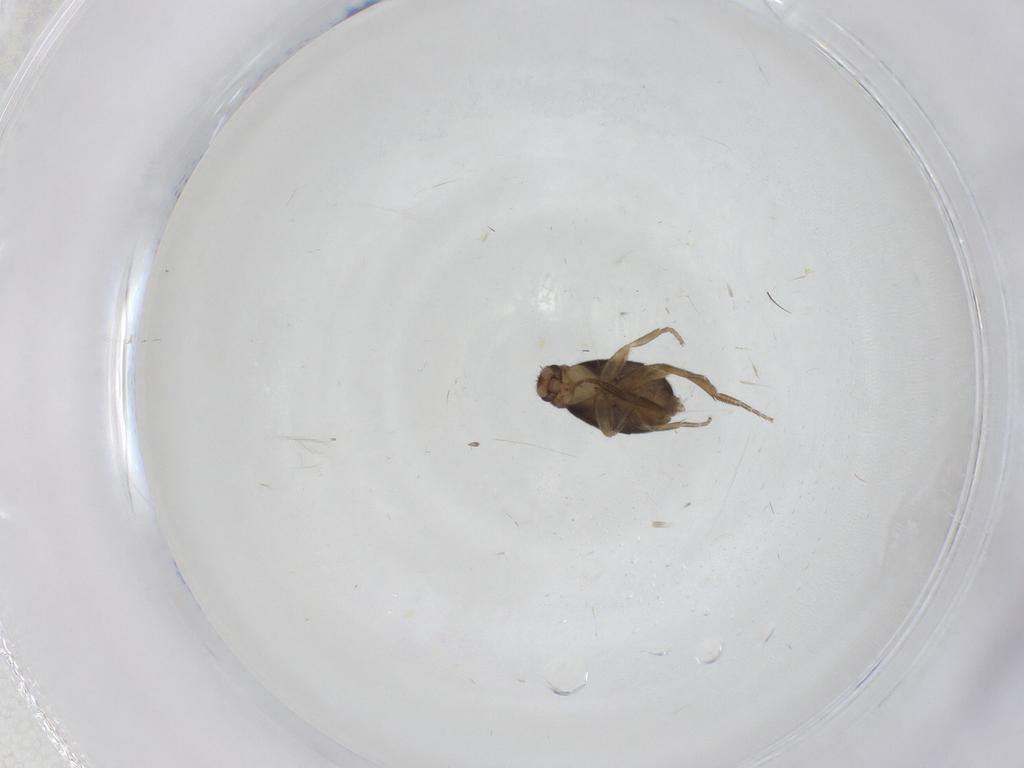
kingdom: Animalia
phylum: Arthropoda
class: Insecta
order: Diptera
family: Phoridae
